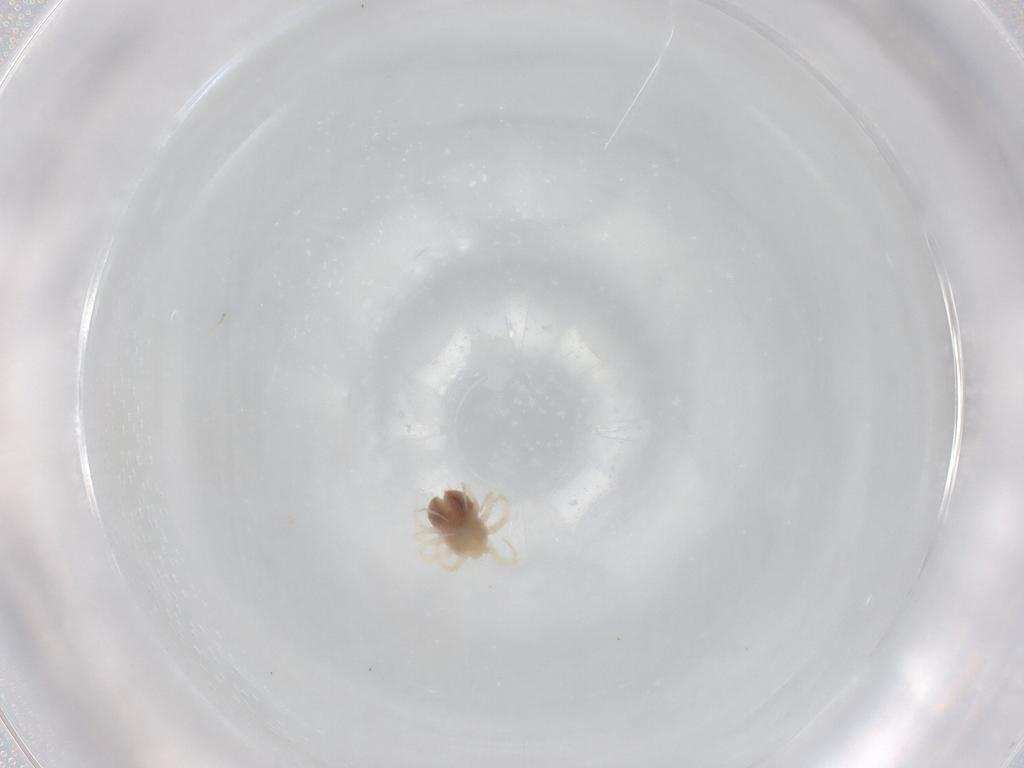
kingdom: Animalia
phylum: Arthropoda
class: Arachnida
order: Trombidiformes
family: Anystidae
